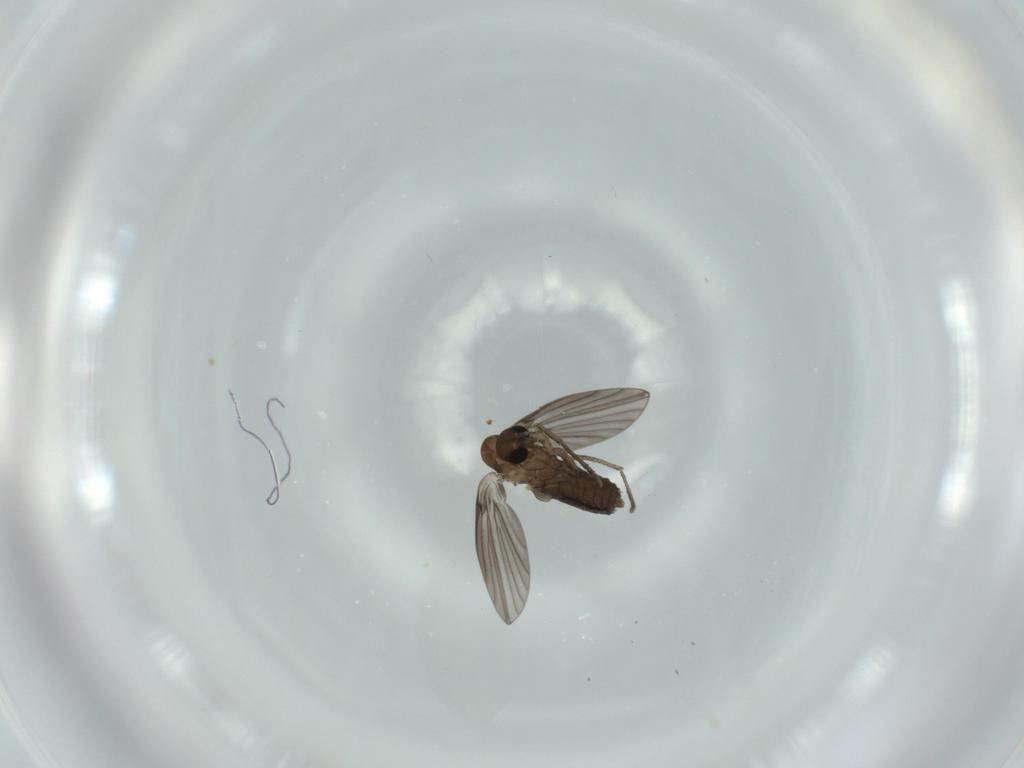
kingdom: Animalia
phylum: Arthropoda
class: Insecta
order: Diptera
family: Psychodidae
